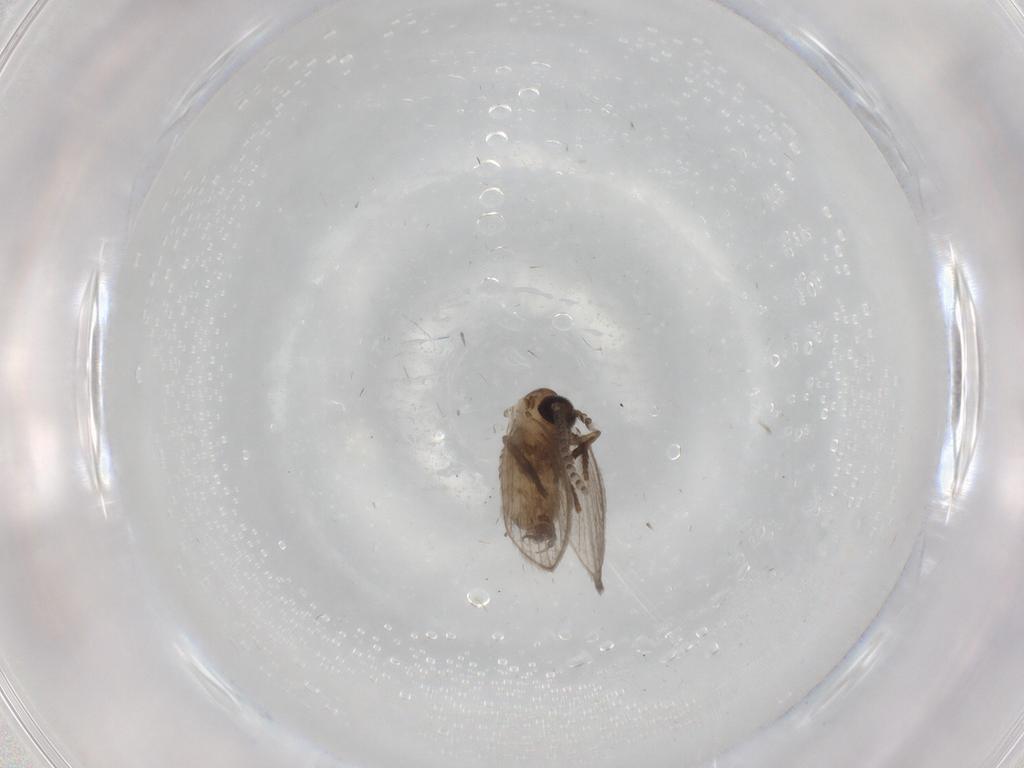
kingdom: Animalia
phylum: Arthropoda
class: Insecta
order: Diptera
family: Psychodidae
